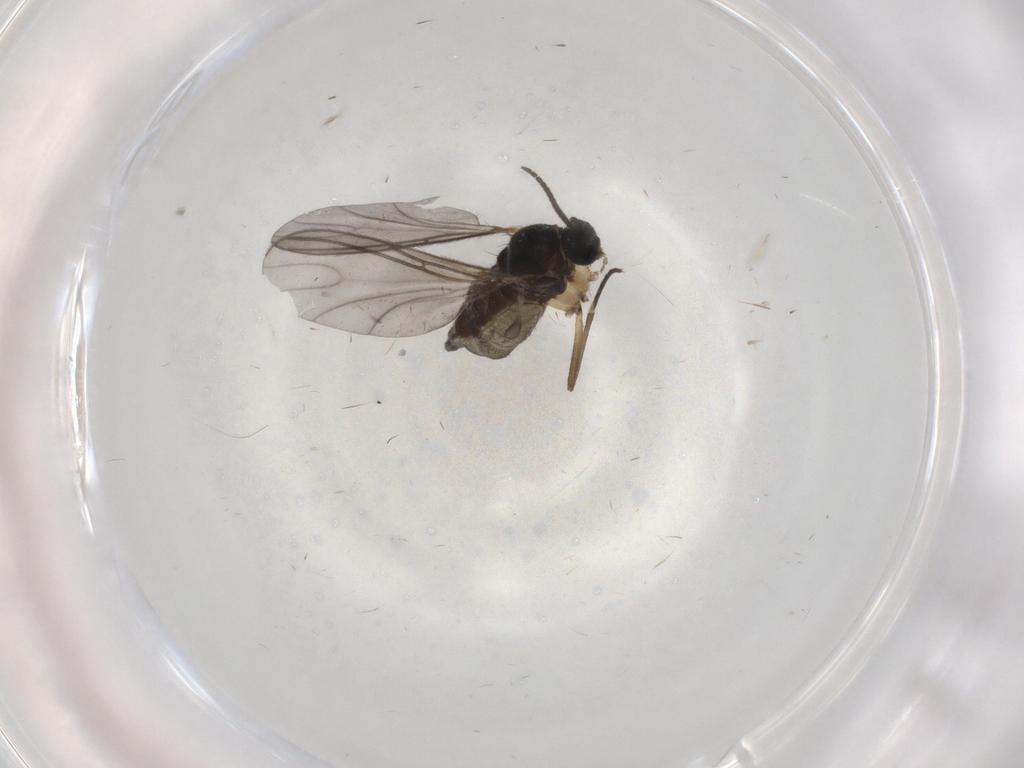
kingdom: Animalia
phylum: Arthropoda
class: Insecta
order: Diptera
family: Sciaridae
